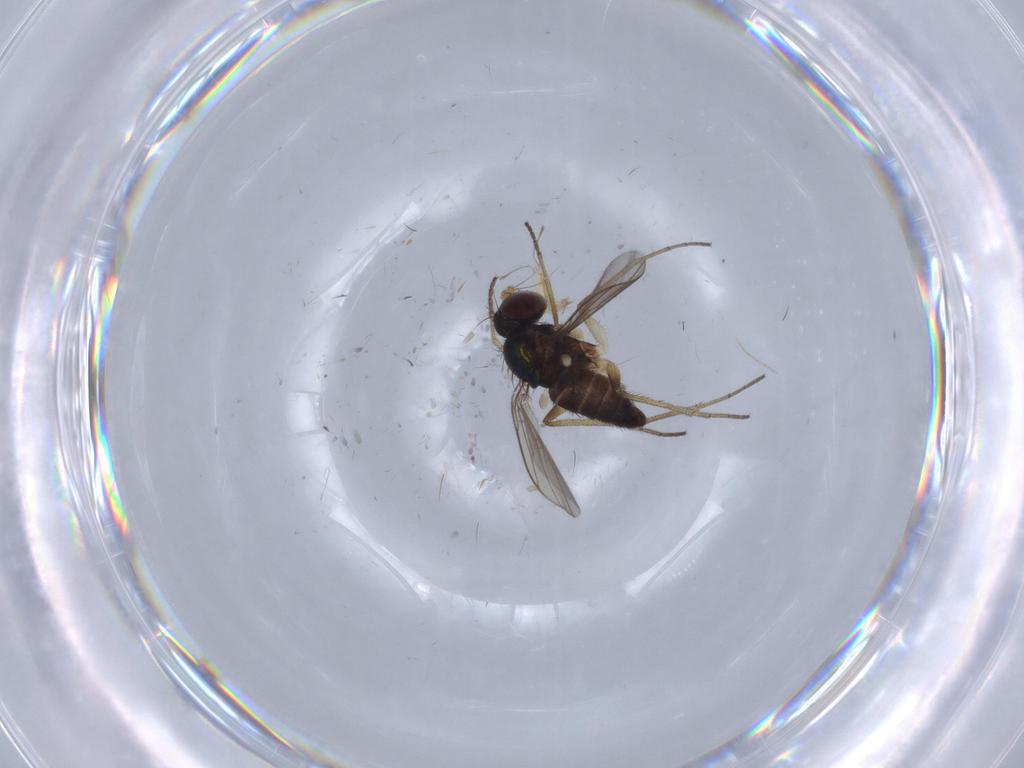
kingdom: Animalia
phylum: Arthropoda
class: Insecta
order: Diptera
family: Dolichopodidae
